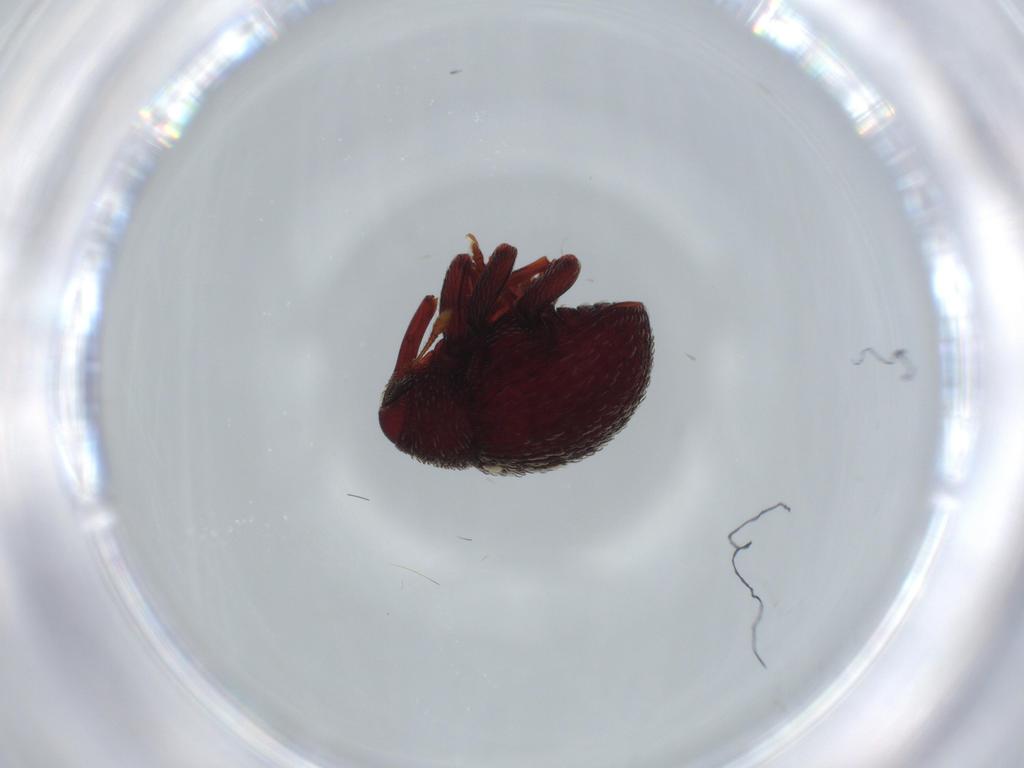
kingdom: Animalia
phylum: Arthropoda
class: Insecta
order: Coleoptera
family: Curculionidae
